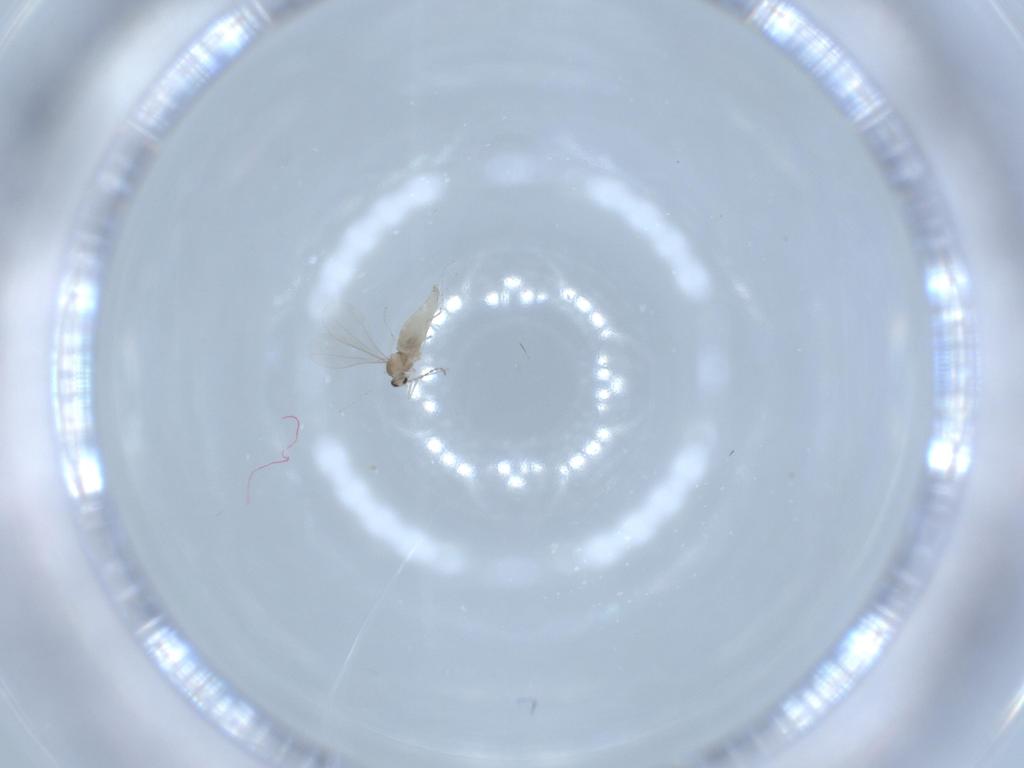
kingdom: Animalia
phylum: Arthropoda
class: Insecta
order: Diptera
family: Cecidomyiidae
